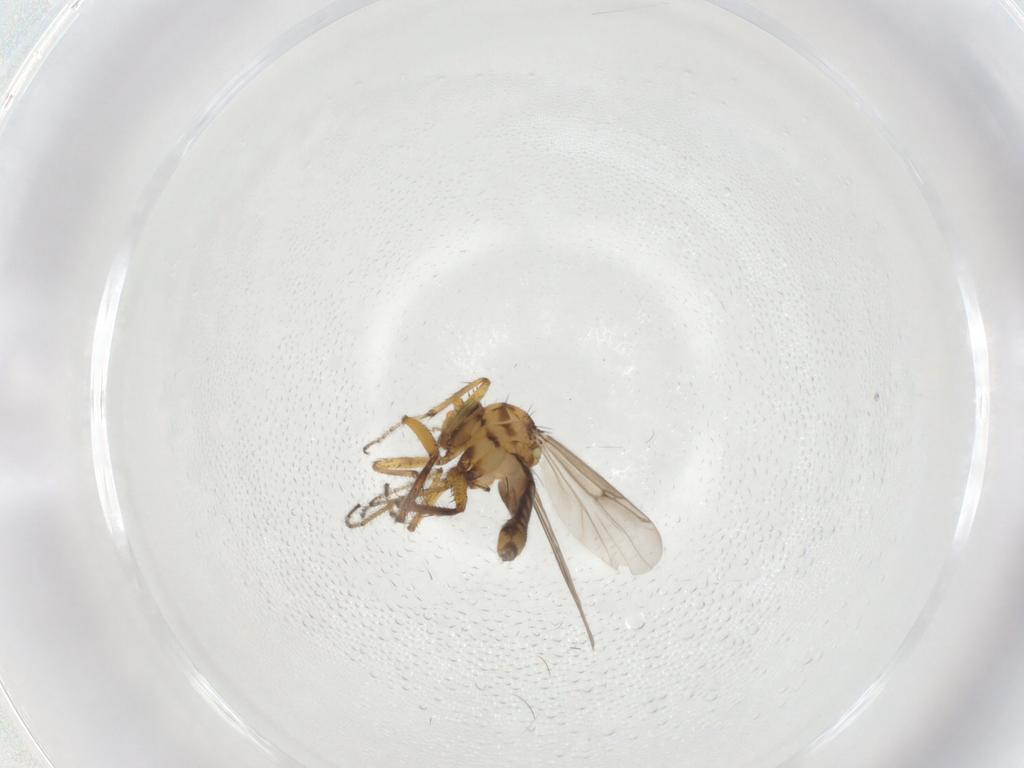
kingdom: Animalia
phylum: Arthropoda
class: Insecta
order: Diptera
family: Ceratopogonidae
